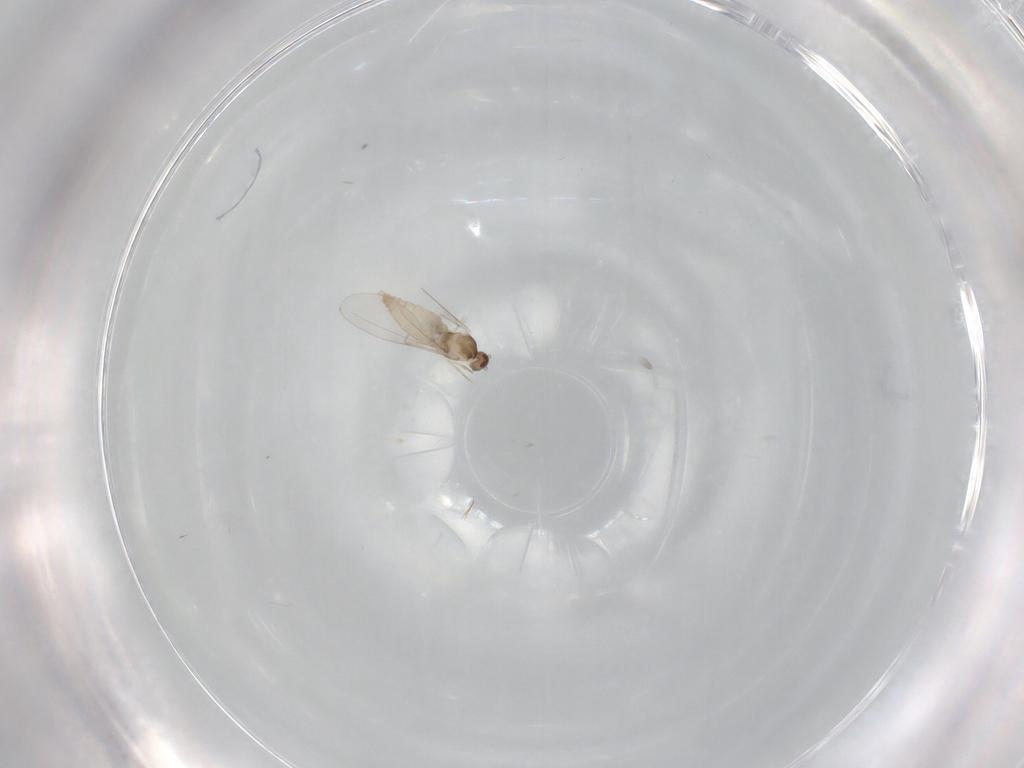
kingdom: Animalia
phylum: Arthropoda
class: Insecta
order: Diptera
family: Cecidomyiidae
